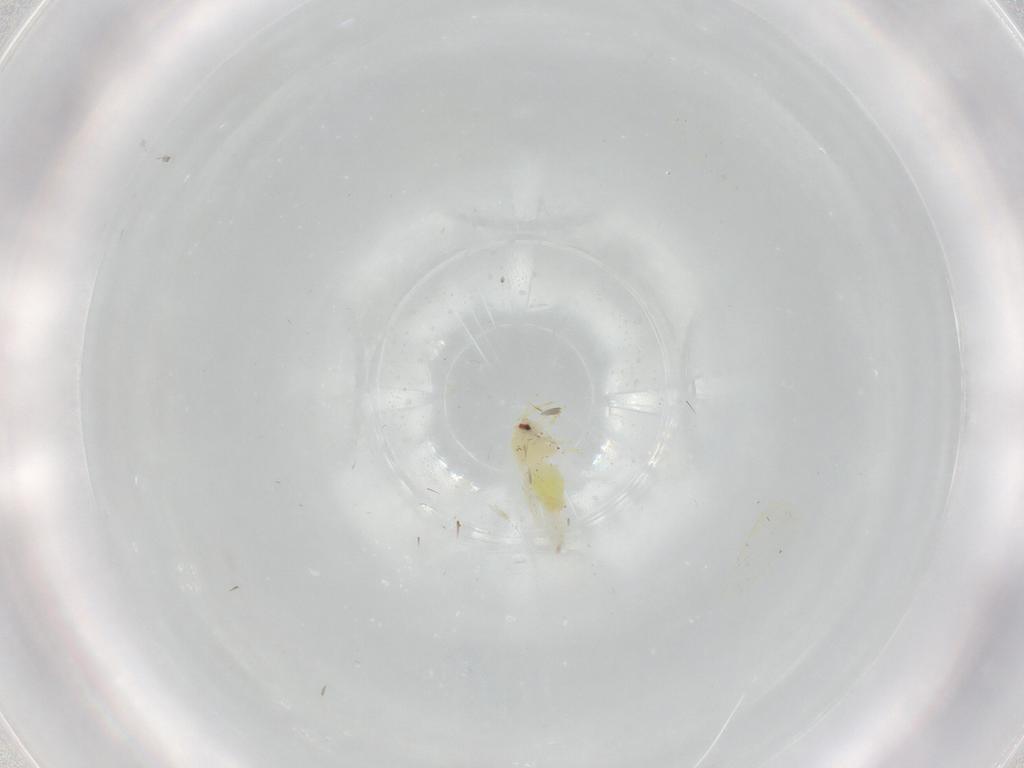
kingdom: Animalia
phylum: Arthropoda
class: Insecta
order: Hemiptera
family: Aleyrodidae
